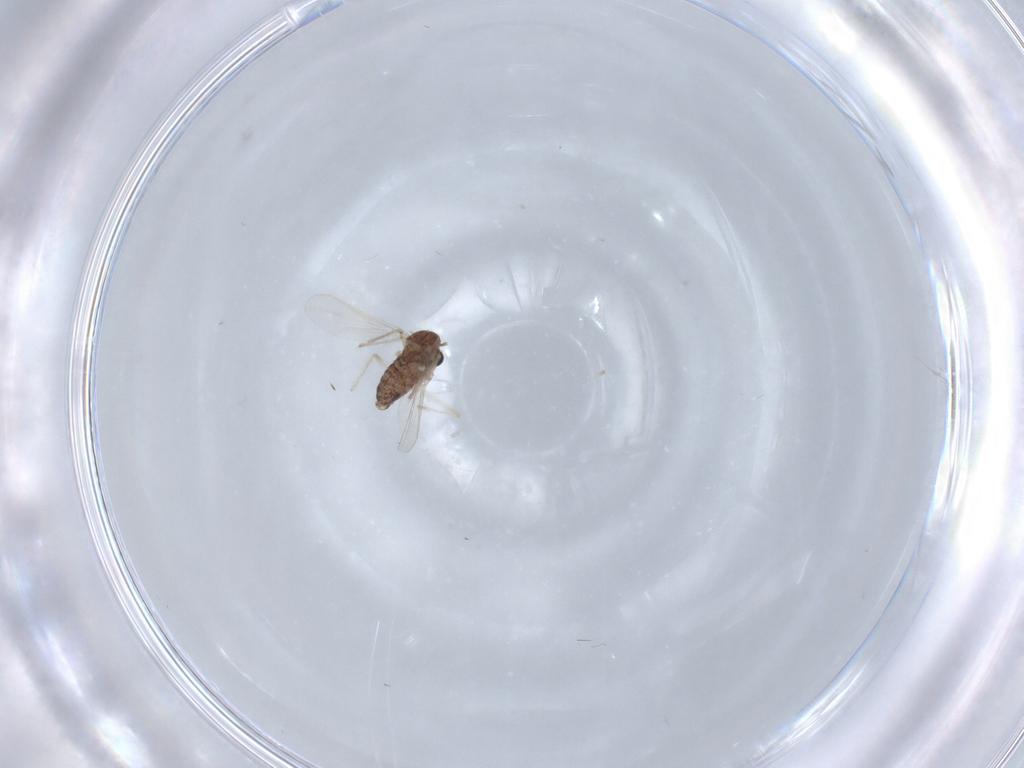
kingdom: Animalia
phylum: Arthropoda
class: Insecta
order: Diptera
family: Chironomidae
